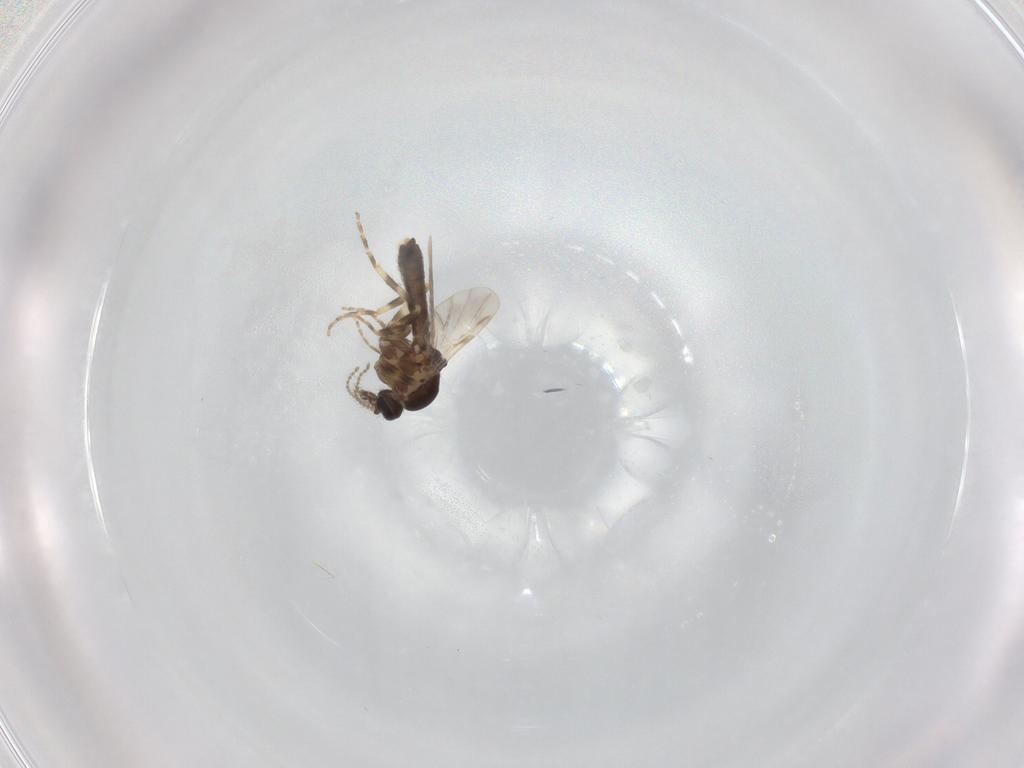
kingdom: Animalia
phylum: Arthropoda
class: Insecta
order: Diptera
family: Ceratopogonidae
